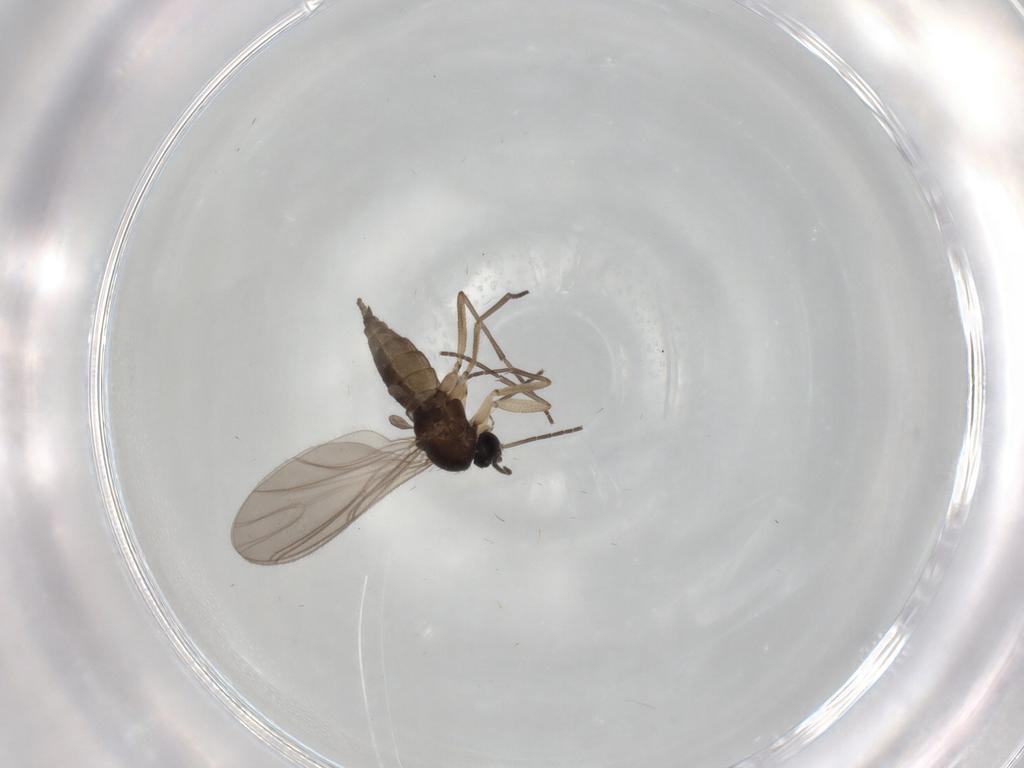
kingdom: Animalia
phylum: Arthropoda
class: Insecta
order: Diptera
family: Sciaridae
